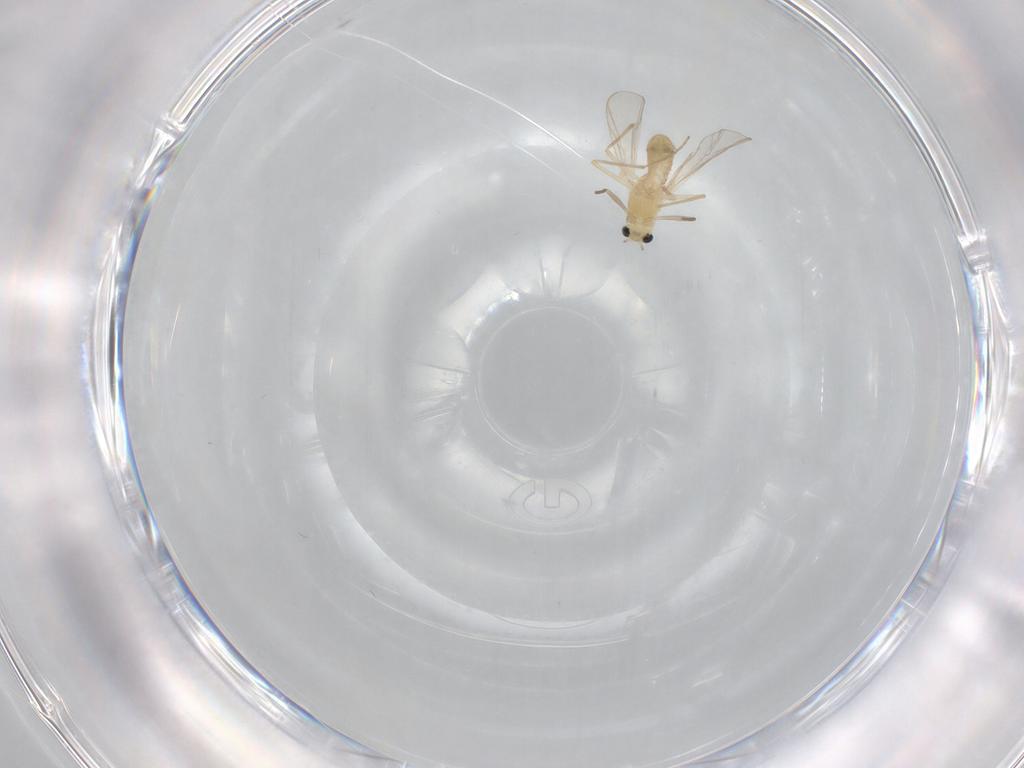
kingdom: Animalia
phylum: Arthropoda
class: Insecta
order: Diptera
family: Chironomidae
